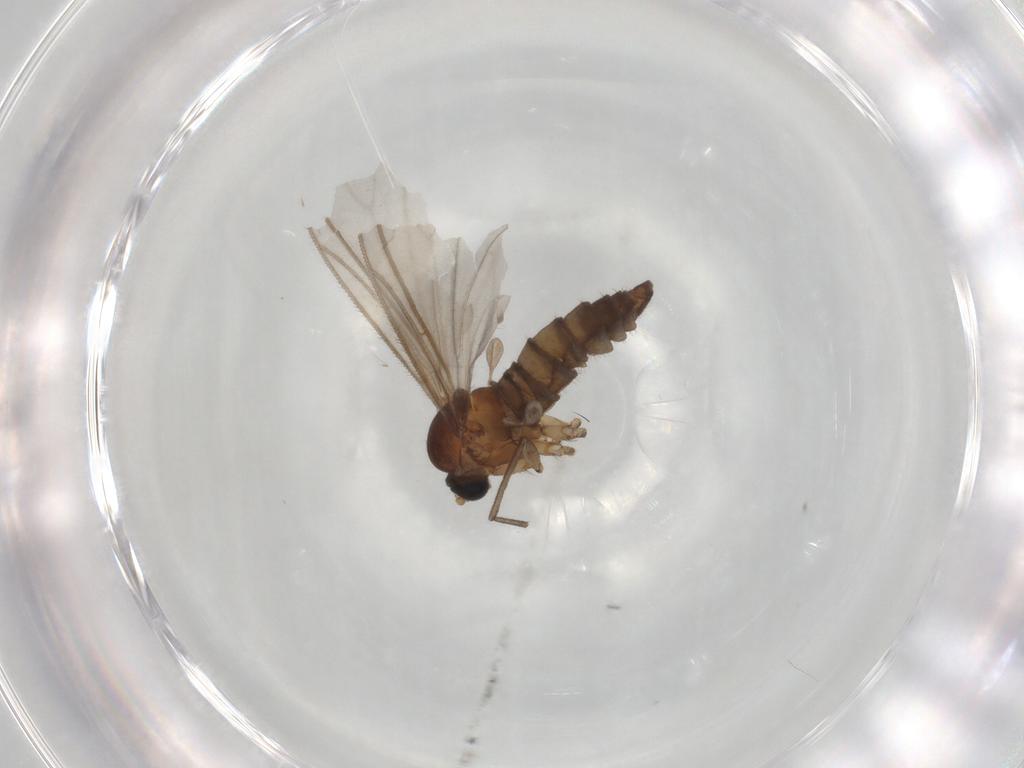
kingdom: Animalia
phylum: Arthropoda
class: Insecta
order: Diptera
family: Sciaridae
